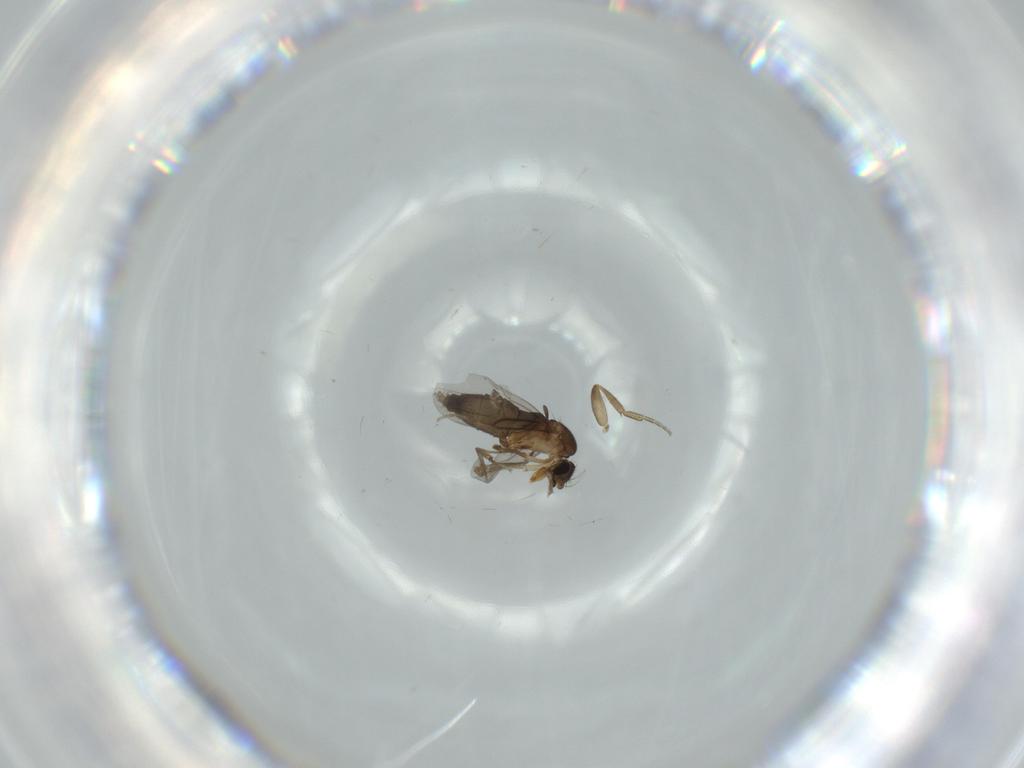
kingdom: Animalia
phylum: Arthropoda
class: Insecta
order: Diptera
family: Phoridae
